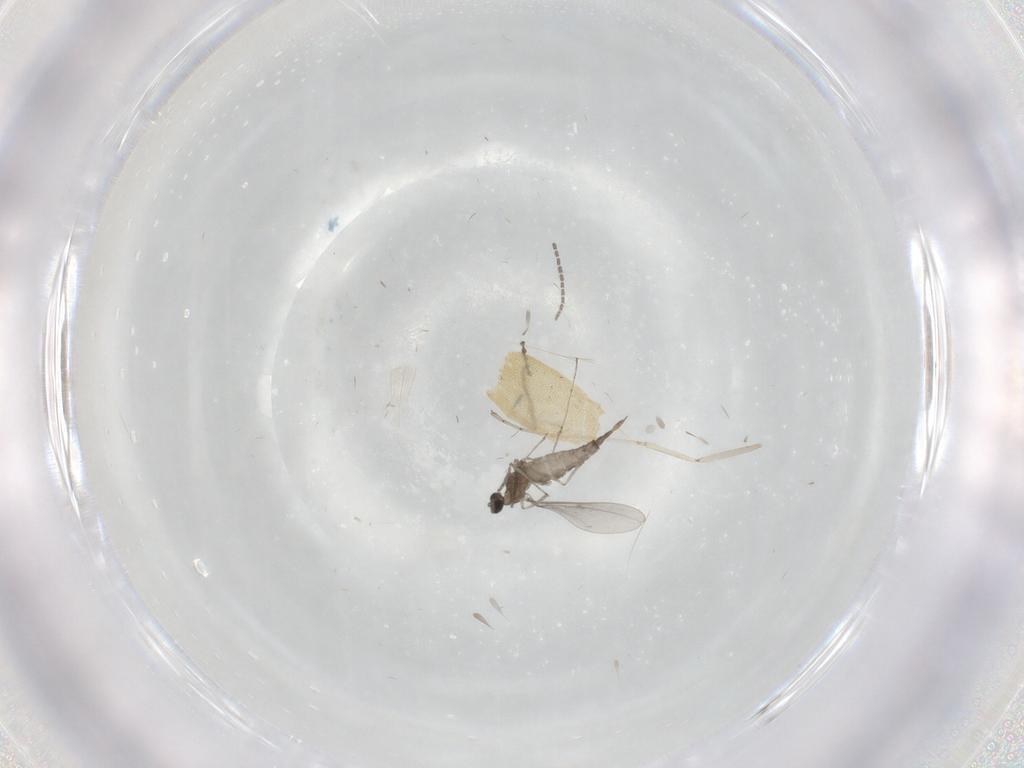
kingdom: Animalia
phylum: Arthropoda
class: Insecta
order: Diptera
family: Cecidomyiidae
